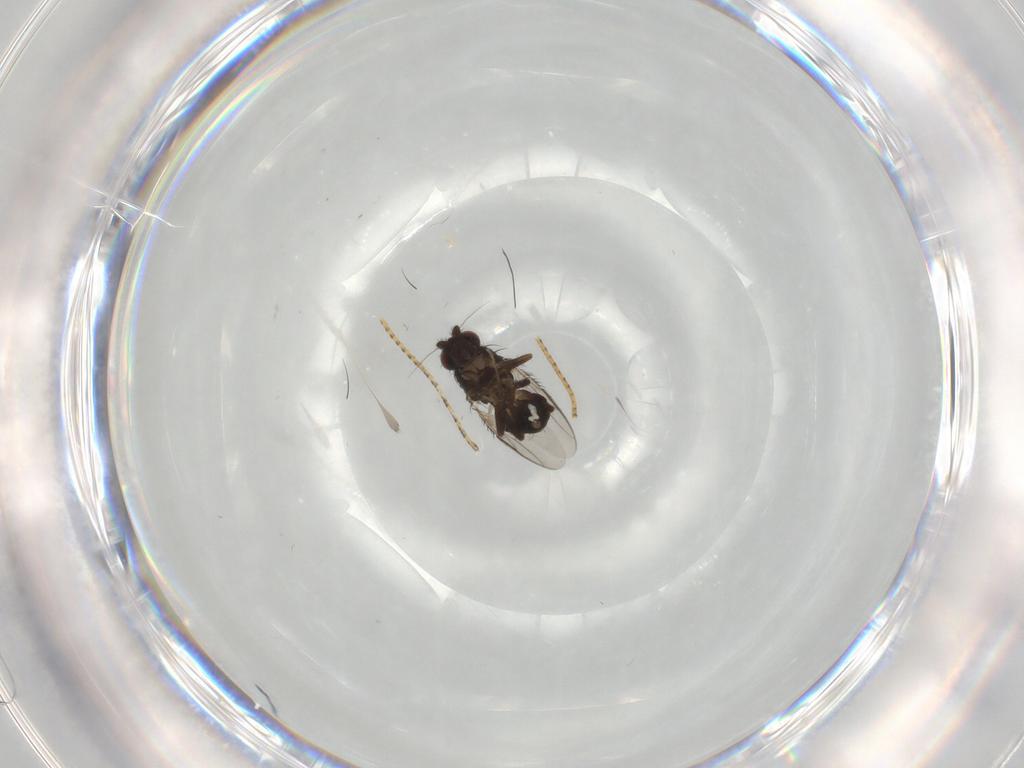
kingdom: Animalia
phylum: Arthropoda
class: Insecta
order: Diptera
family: Sphaeroceridae
